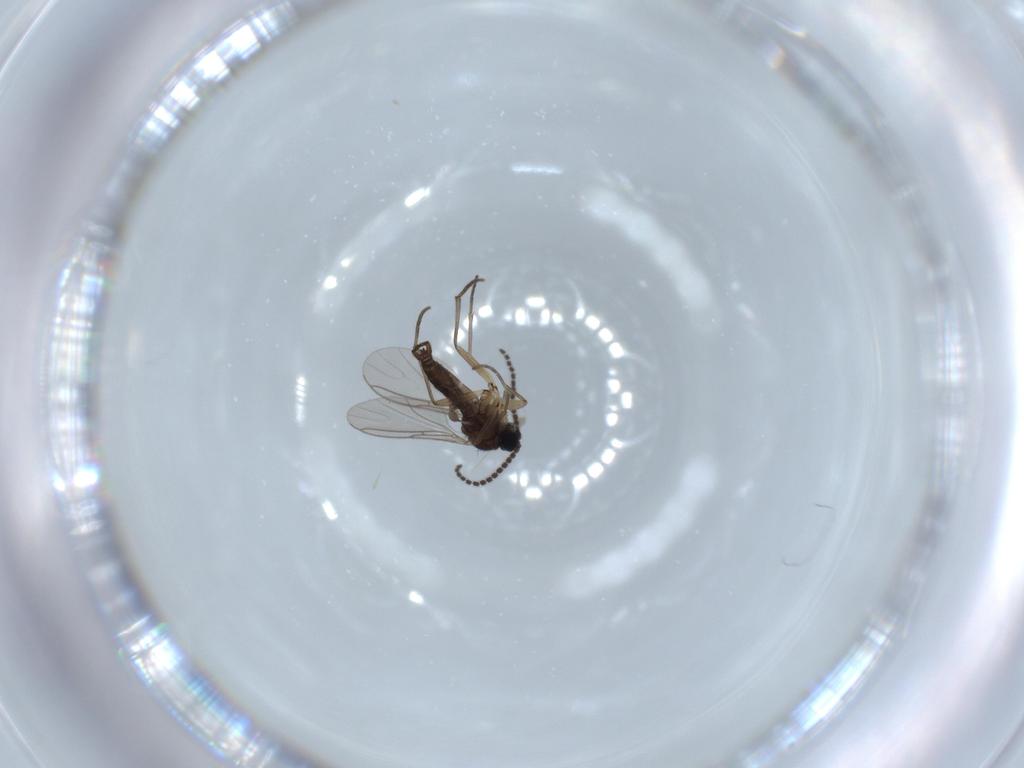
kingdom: Animalia
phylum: Arthropoda
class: Insecta
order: Diptera
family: Sciaridae
